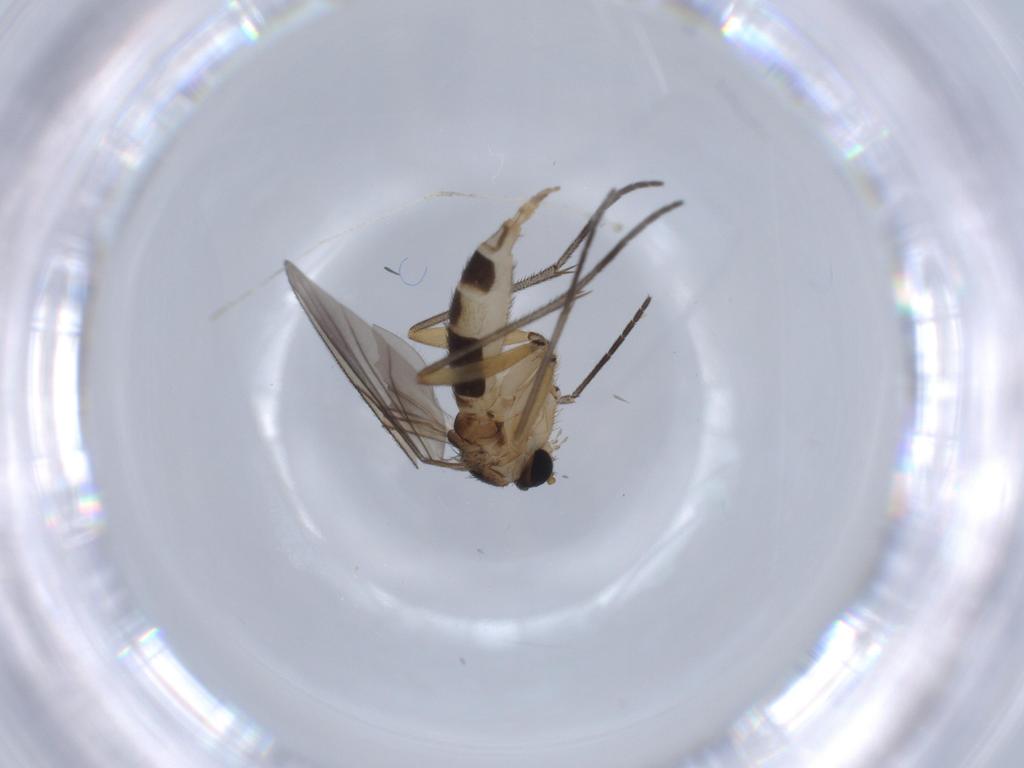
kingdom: Animalia
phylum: Arthropoda
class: Insecta
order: Diptera
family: Sciaridae
